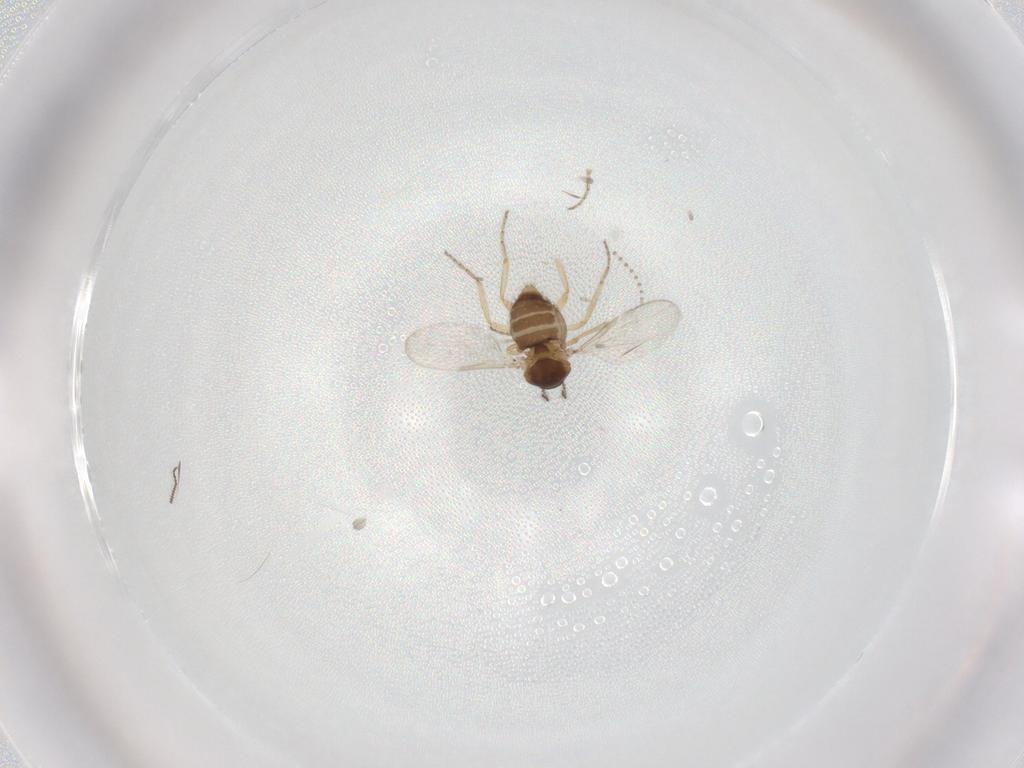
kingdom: Animalia
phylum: Arthropoda
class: Insecta
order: Diptera
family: Ceratopogonidae
